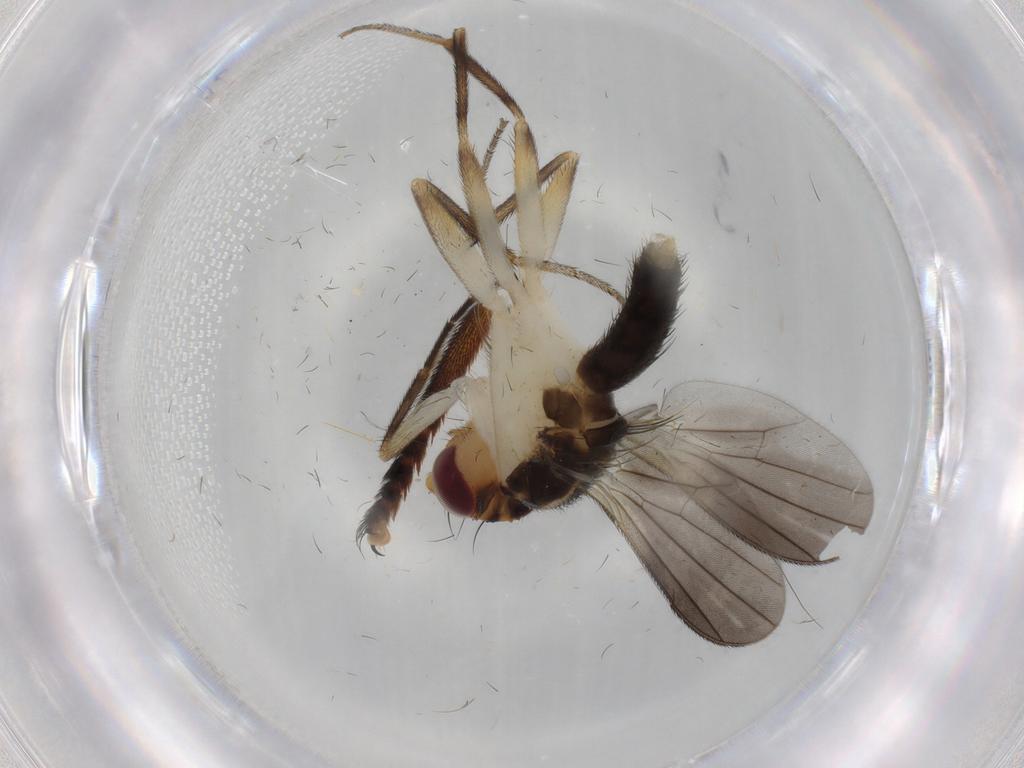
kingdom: Animalia
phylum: Arthropoda
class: Insecta
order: Diptera
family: Clusiidae
